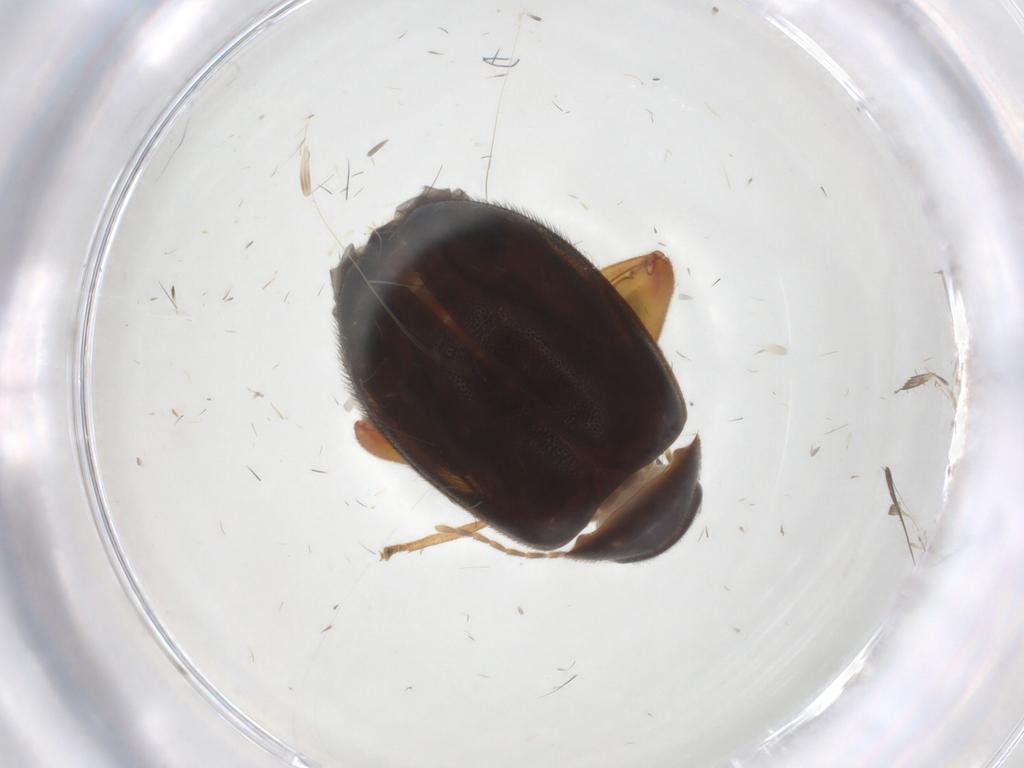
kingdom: Animalia
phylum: Arthropoda
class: Insecta
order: Coleoptera
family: Scirtidae
